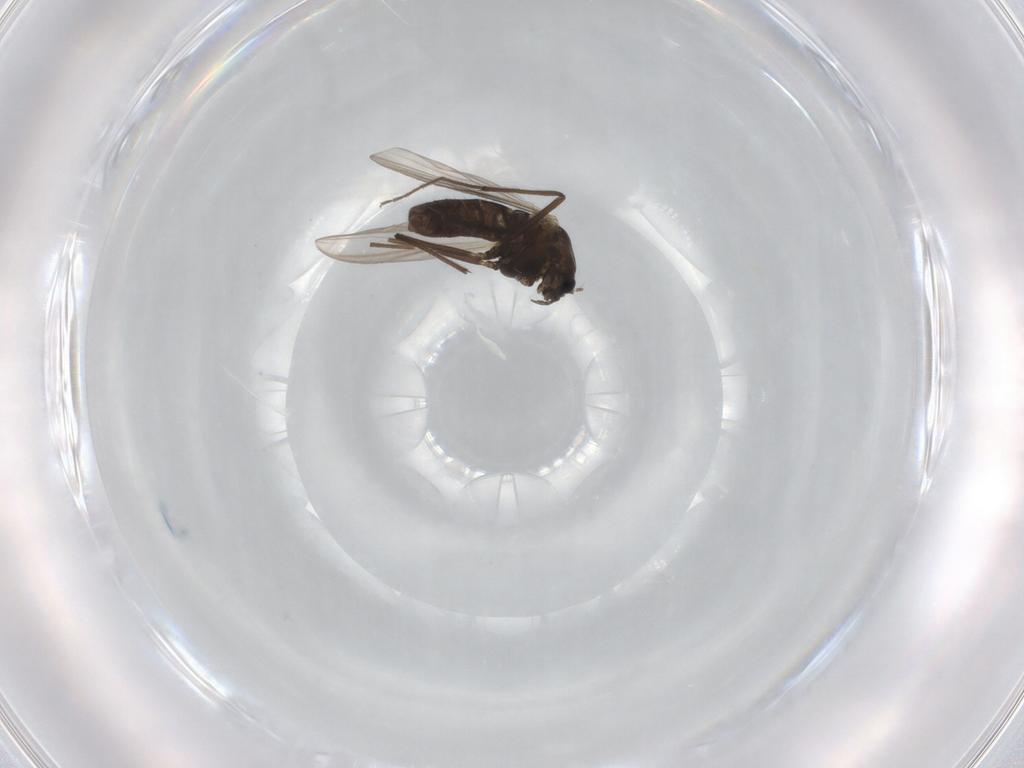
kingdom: Animalia
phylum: Arthropoda
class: Insecta
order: Diptera
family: Chironomidae
